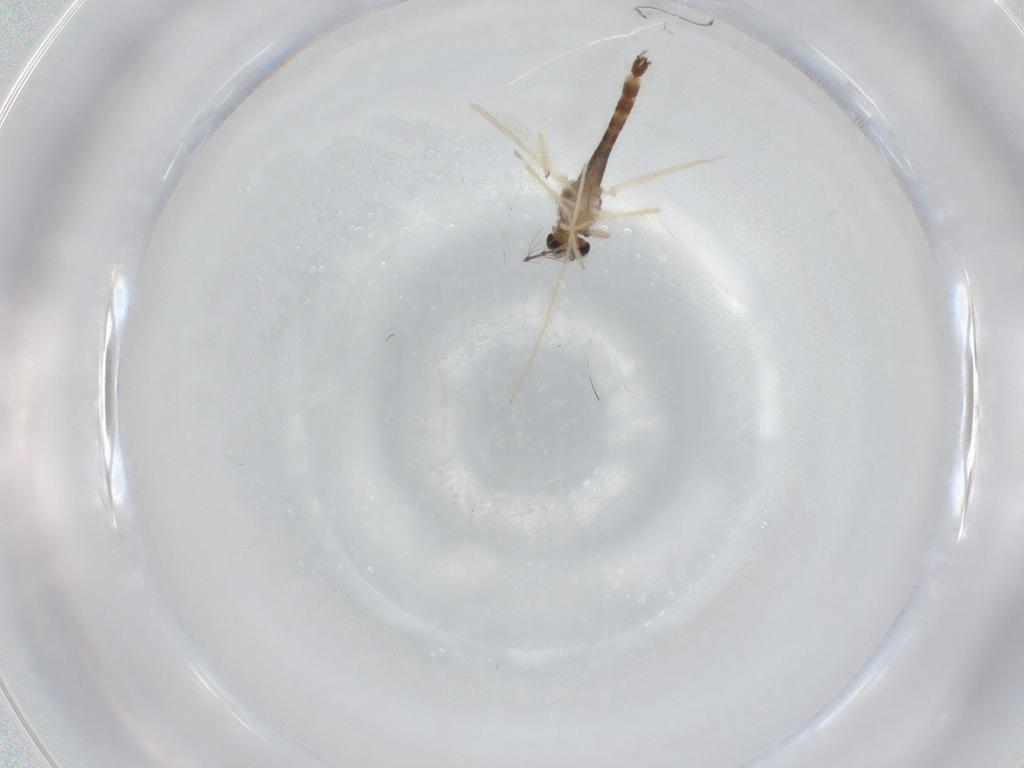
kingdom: Animalia
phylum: Arthropoda
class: Insecta
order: Diptera
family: Chironomidae
